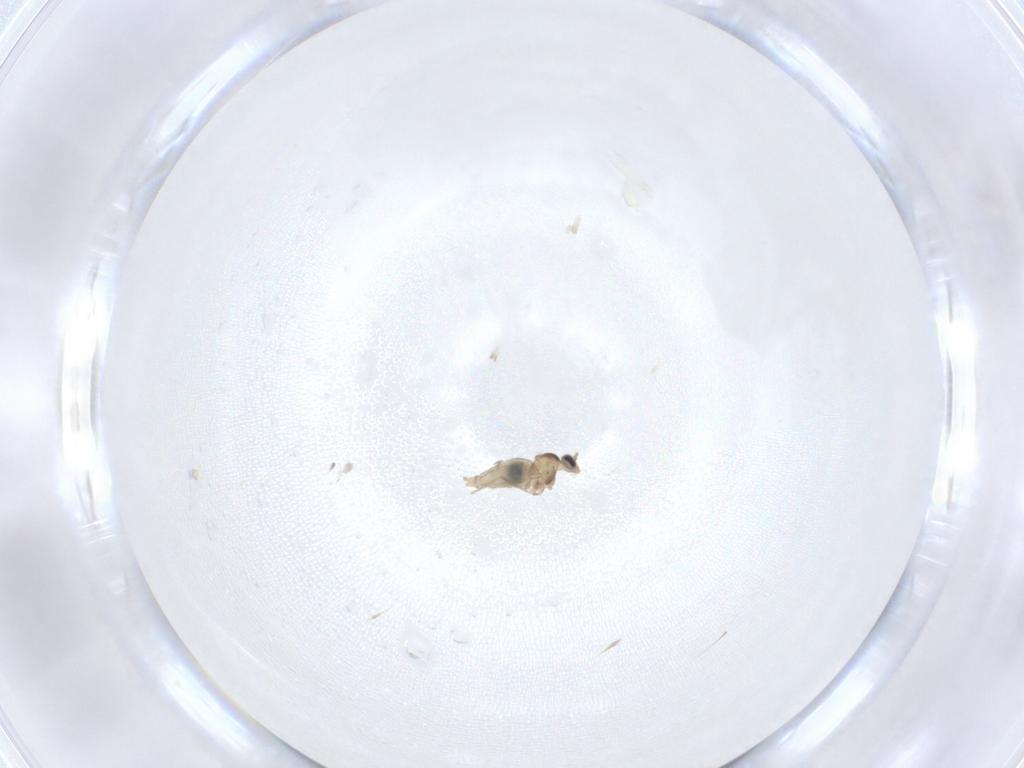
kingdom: Animalia
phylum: Arthropoda
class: Insecta
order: Diptera
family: Cecidomyiidae
